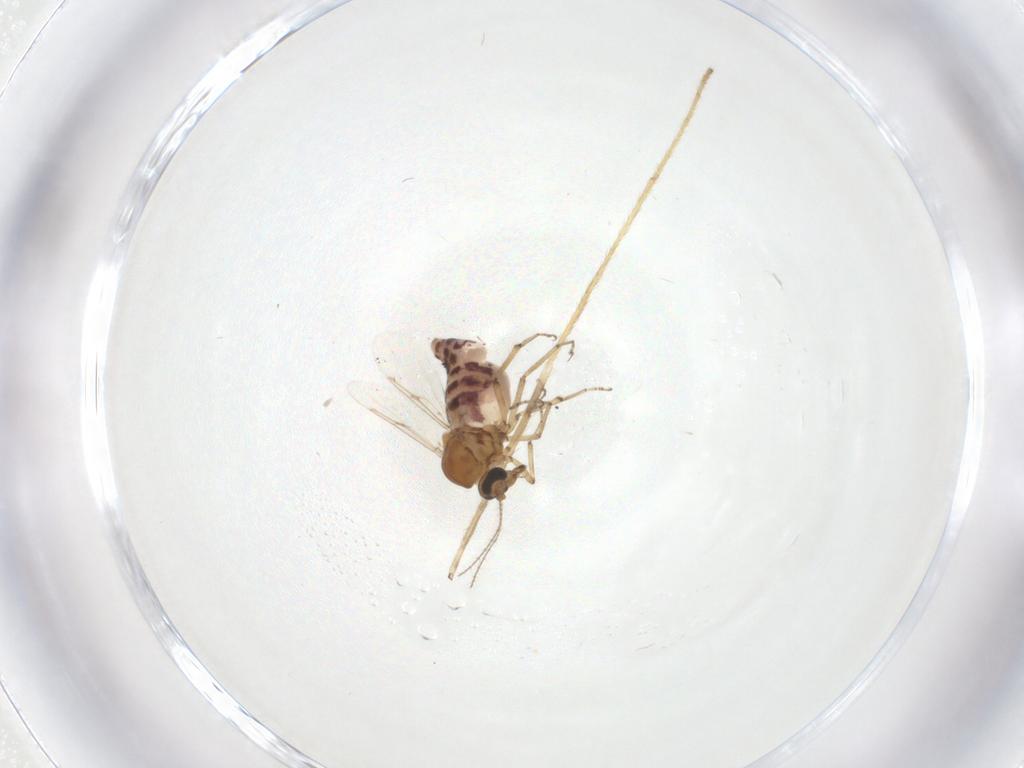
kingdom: Animalia
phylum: Arthropoda
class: Insecta
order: Diptera
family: Ceratopogonidae
